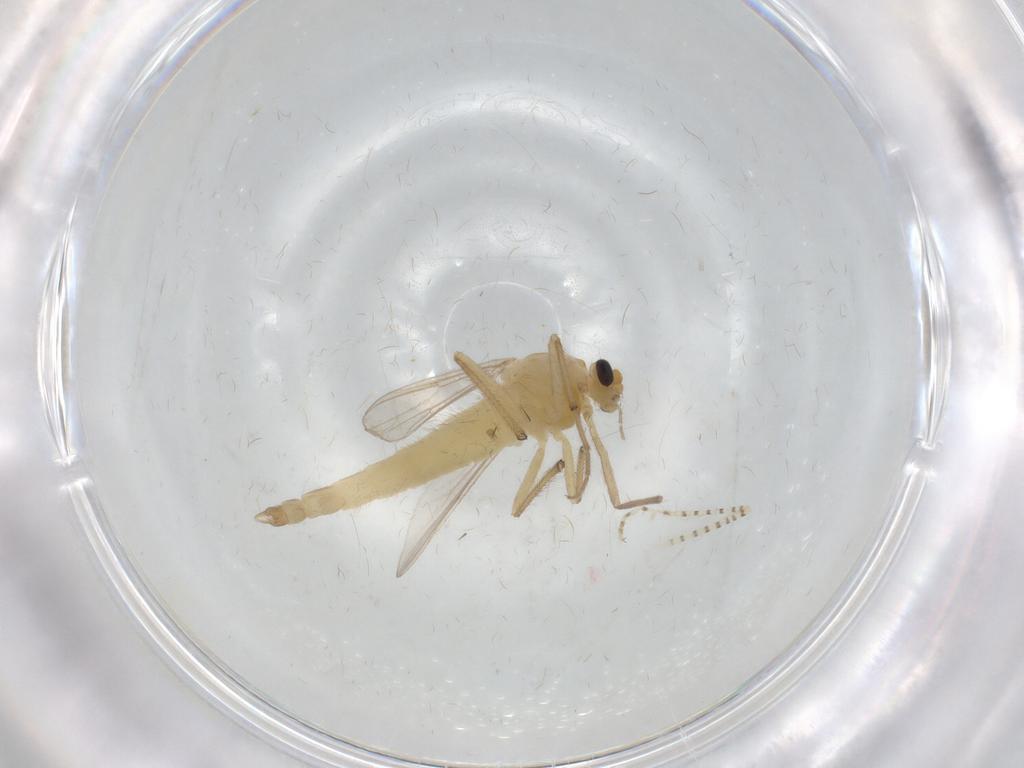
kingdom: Animalia
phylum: Arthropoda
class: Insecta
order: Diptera
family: Chironomidae
